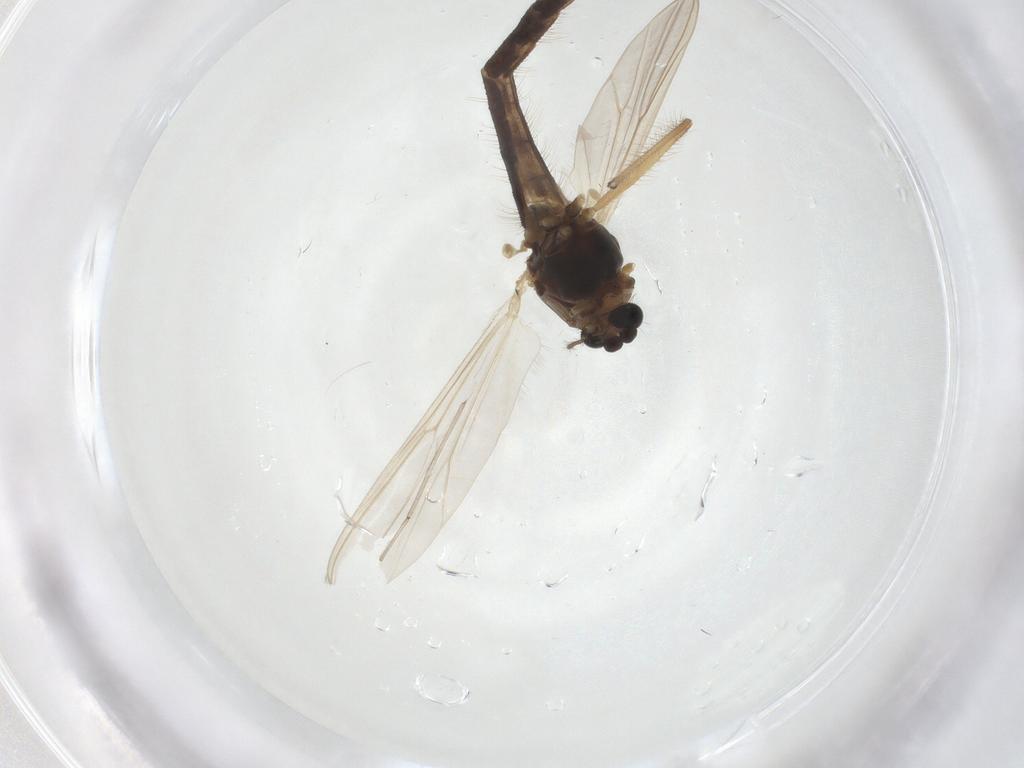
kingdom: Animalia
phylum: Arthropoda
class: Insecta
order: Diptera
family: Chironomidae
